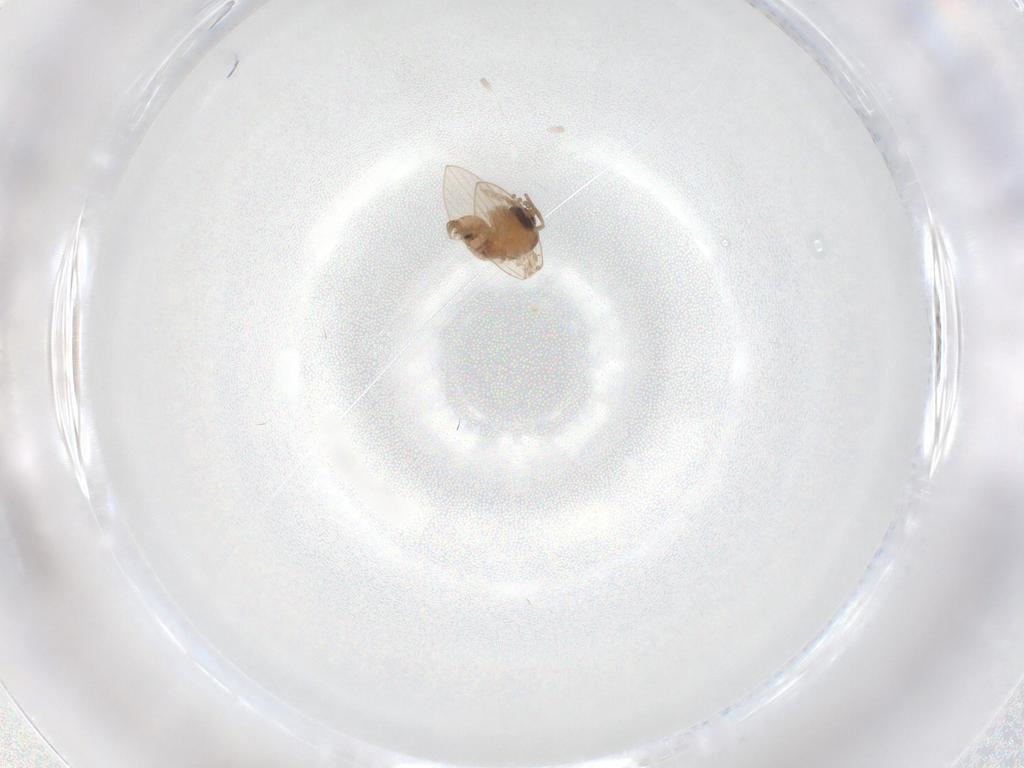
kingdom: Animalia
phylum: Arthropoda
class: Insecta
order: Diptera
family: Psychodidae
